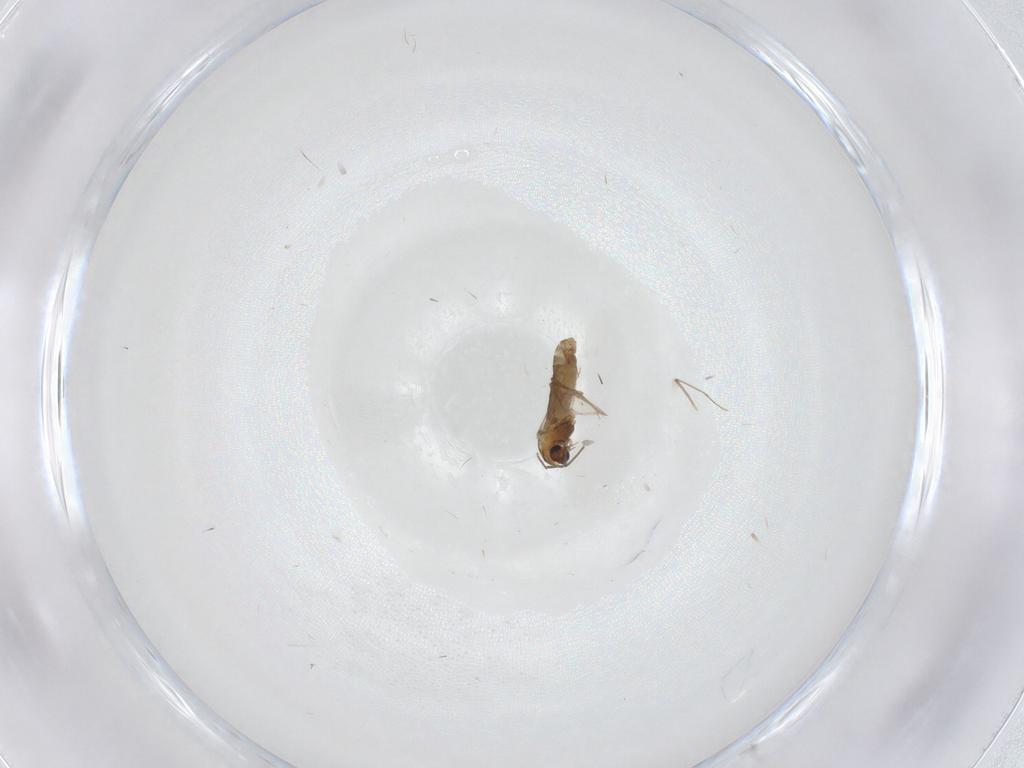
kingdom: Animalia
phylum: Arthropoda
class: Insecta
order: Diptera
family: Chironomidae
